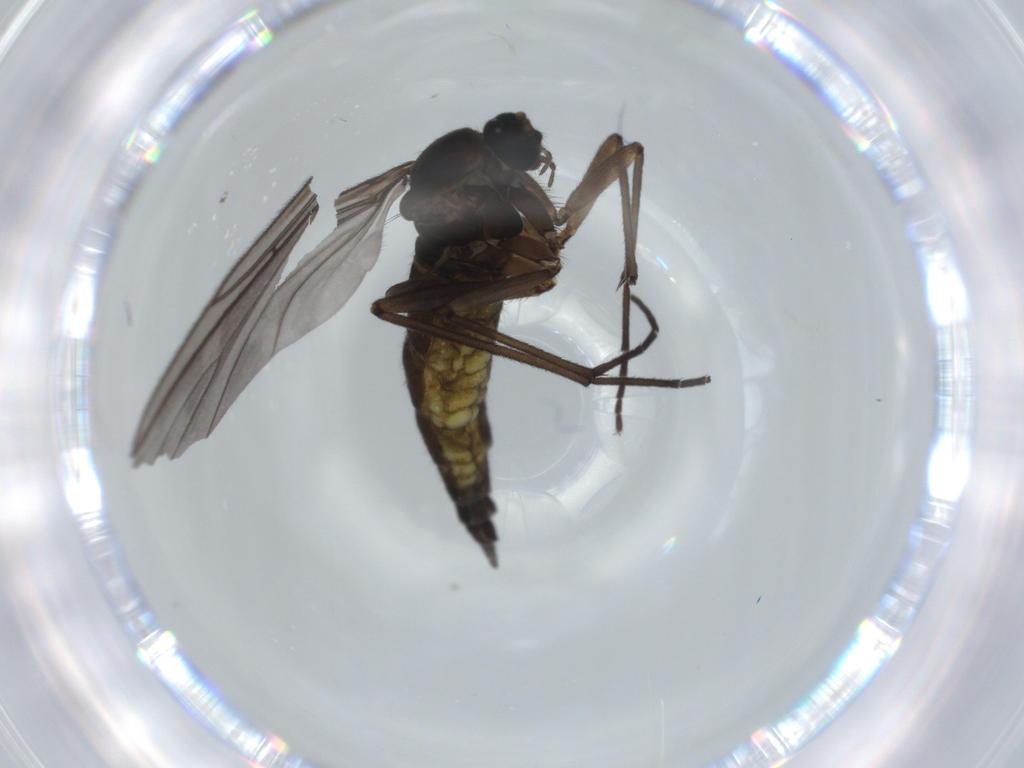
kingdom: Animalia
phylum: Arthropoda
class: Insecta
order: Diptera
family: Sciaridae
